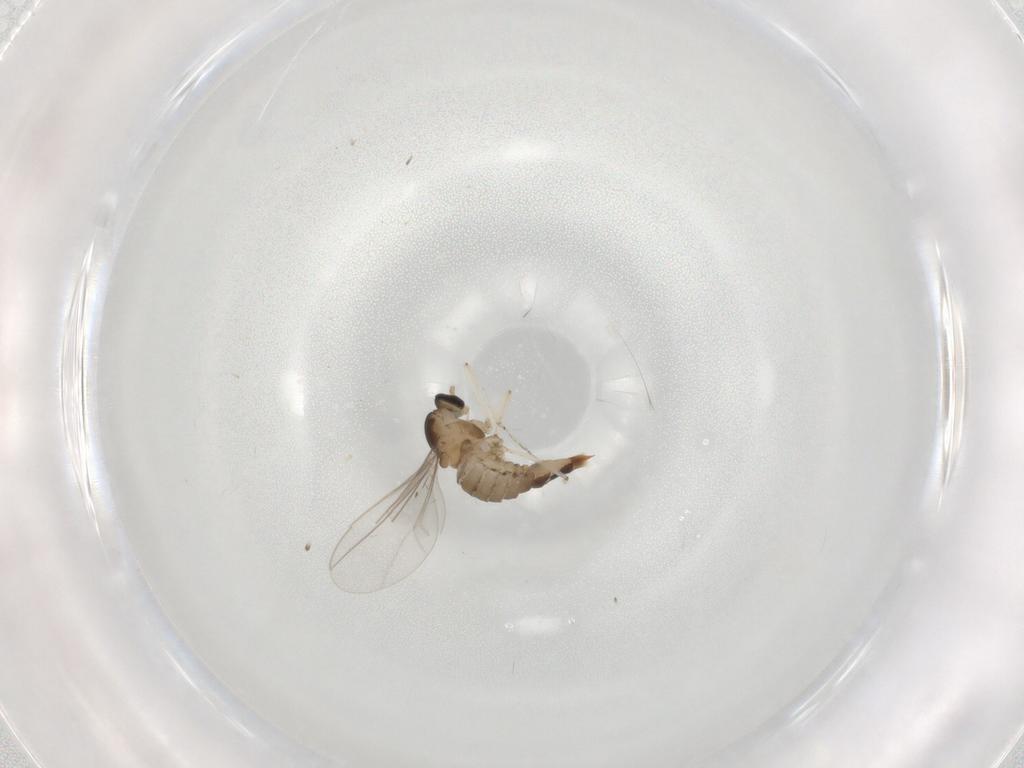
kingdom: Animalia
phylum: Arthropoda
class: Insecta
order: Diptera
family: Cecidomyiidae
